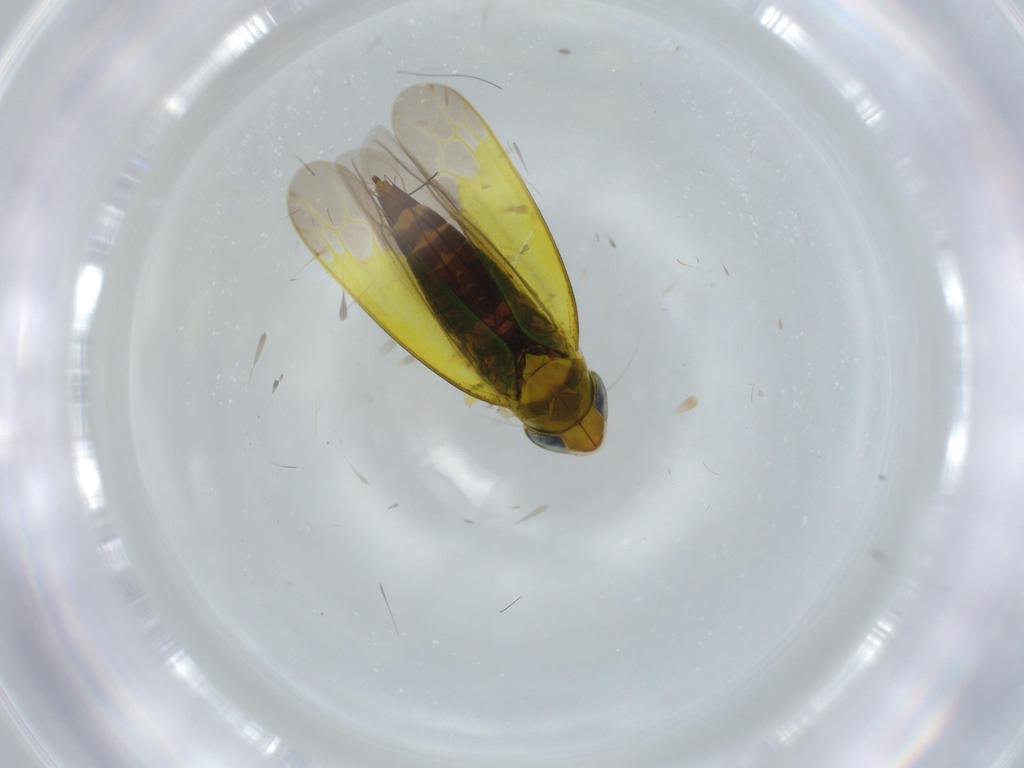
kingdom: Animalia
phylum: Arthropoda
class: Insecta
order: Hemiptera
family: Cicadellidae
